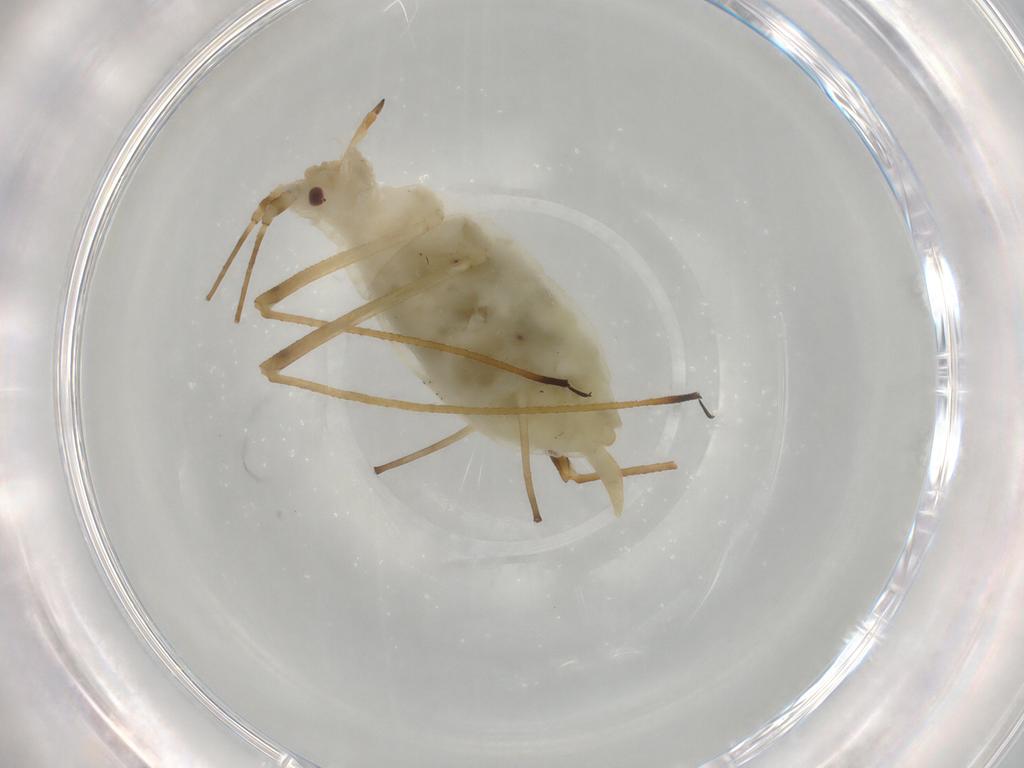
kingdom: Animalia
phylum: Arthropoda
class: Insecta
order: Hemiptera
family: Aphididae
